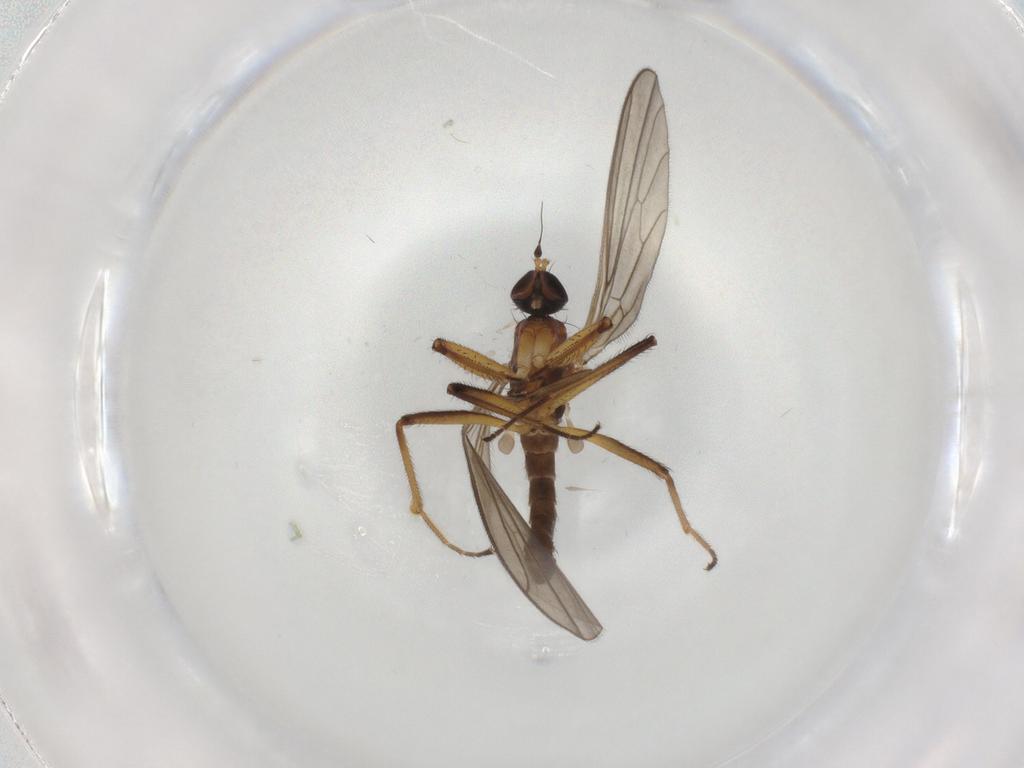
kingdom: Animalia
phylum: Arthropoda
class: Insecta
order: Diptera
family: Empididae
